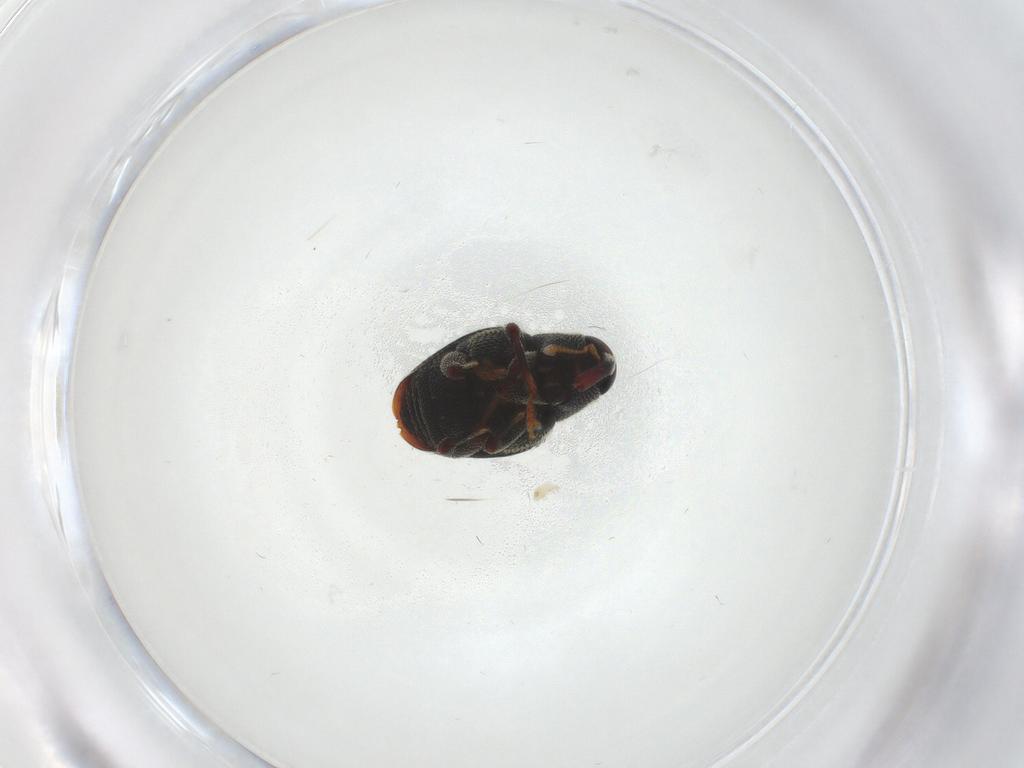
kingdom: Animalia
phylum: Arthropoda
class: Insecta
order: Coleoptera
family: Curculionidae
